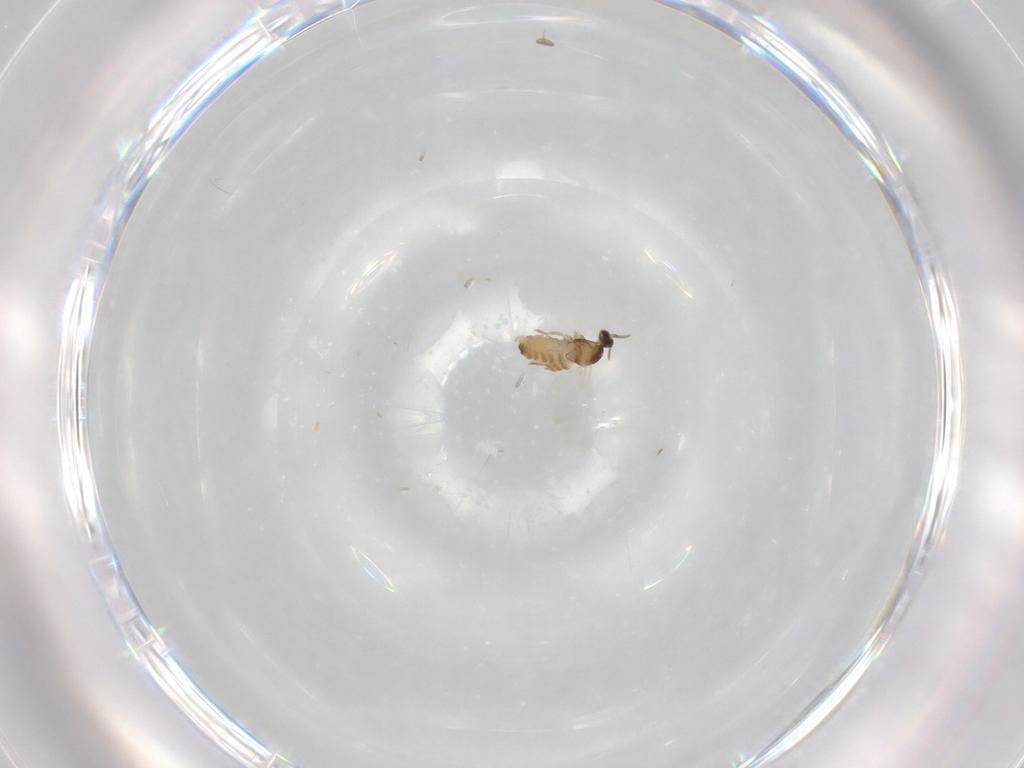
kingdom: Animalia
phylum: Arthropoda
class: Insecta
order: Diptera
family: Cecidomyiidae
